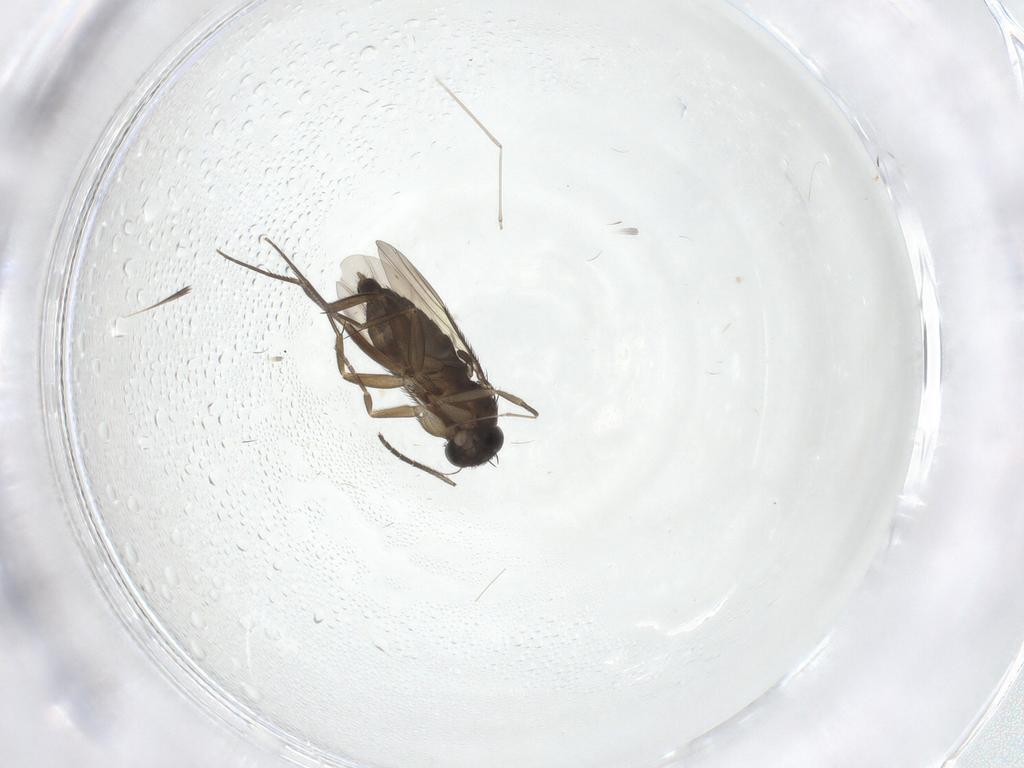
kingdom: Animalia
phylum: Arthropoda
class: Insecta
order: Diptera
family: Phoridae
